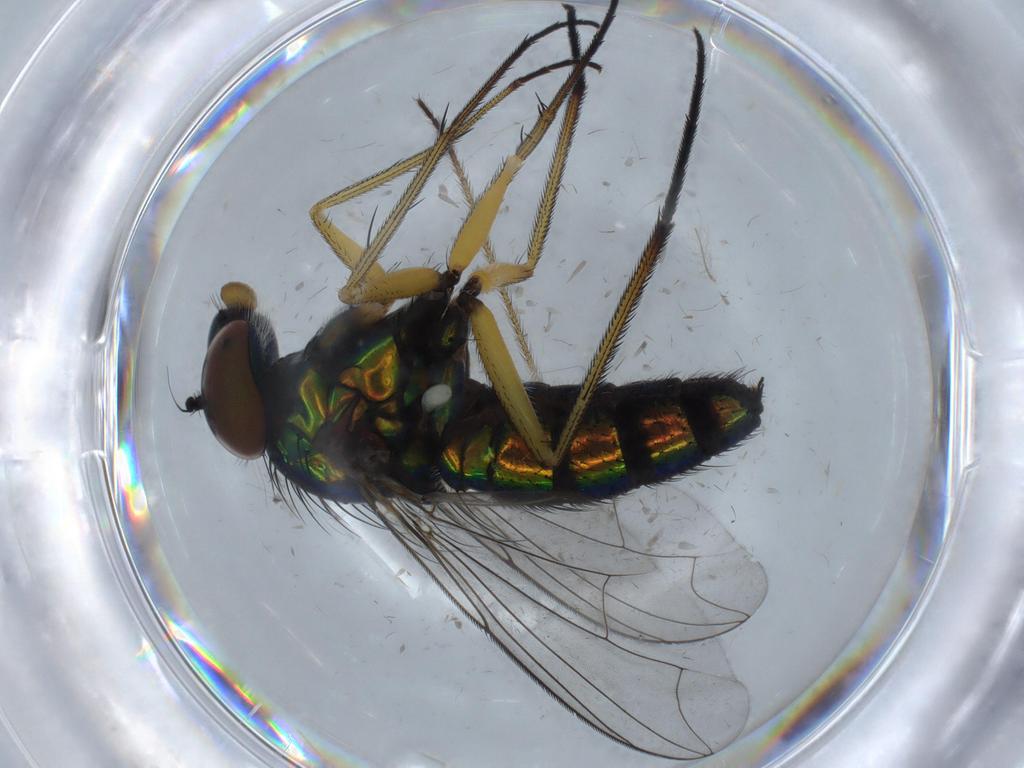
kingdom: Animalia
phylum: Arthropoda
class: Insecta
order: Diptera
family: Dolichopodidae
